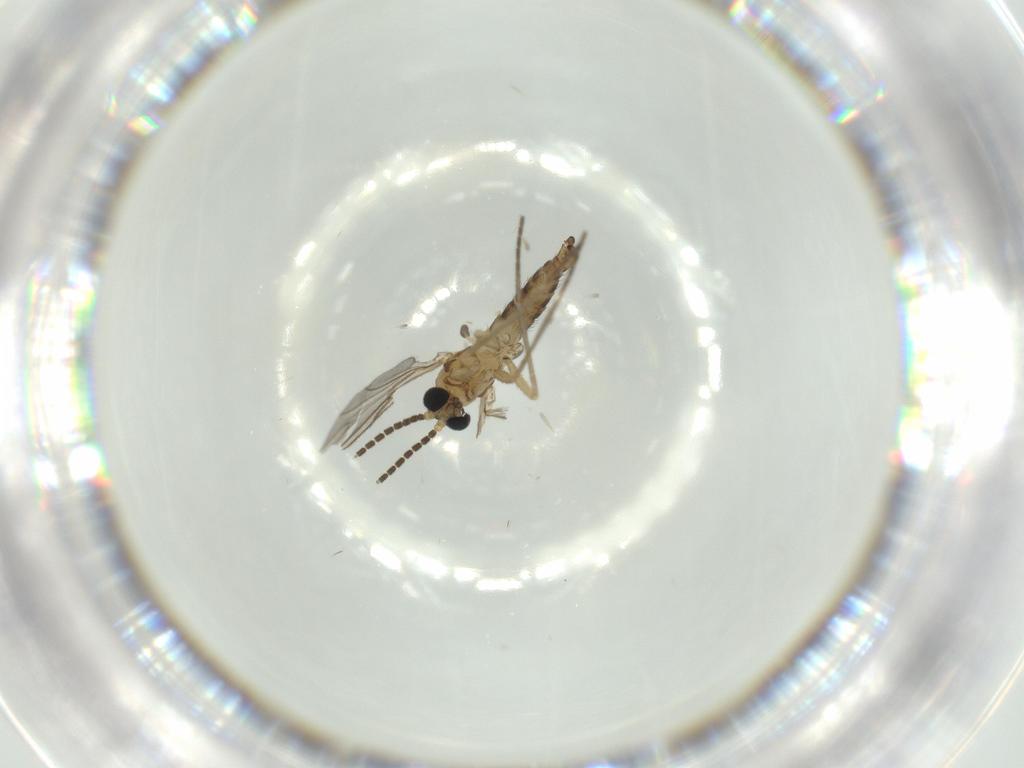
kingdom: Animalia
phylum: Arthropoda
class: Insecta
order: Diptera
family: Sciaridae
